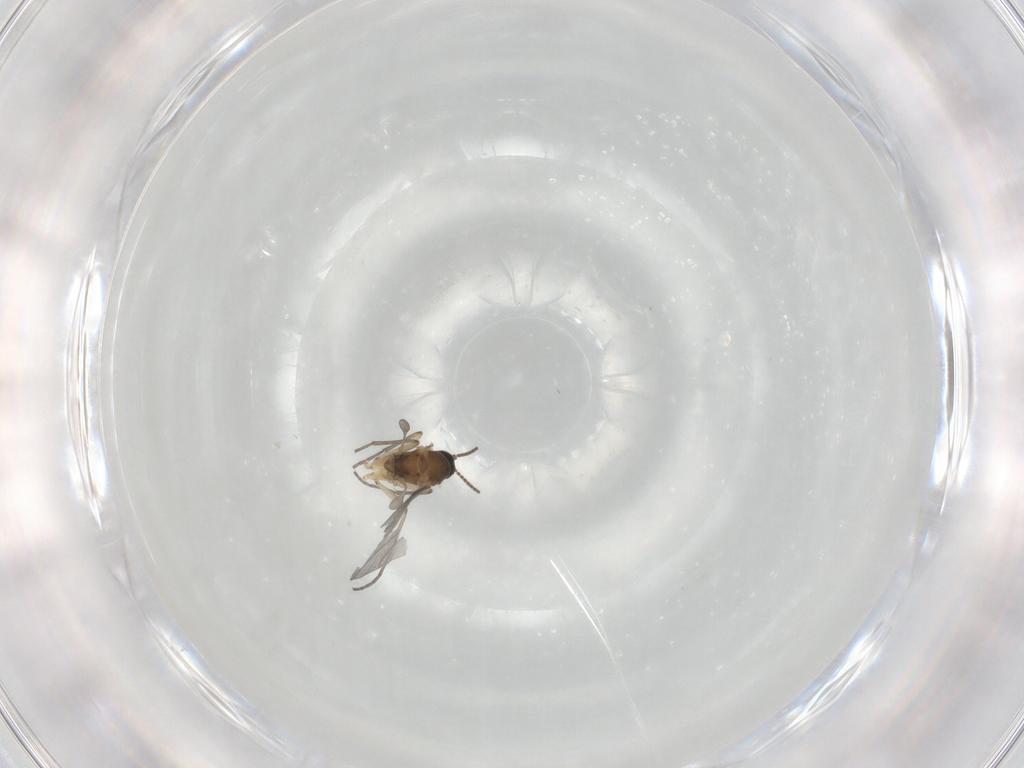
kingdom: Animalia
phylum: Arthropoda
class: Insecta
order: Diptera
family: Sciaridae
